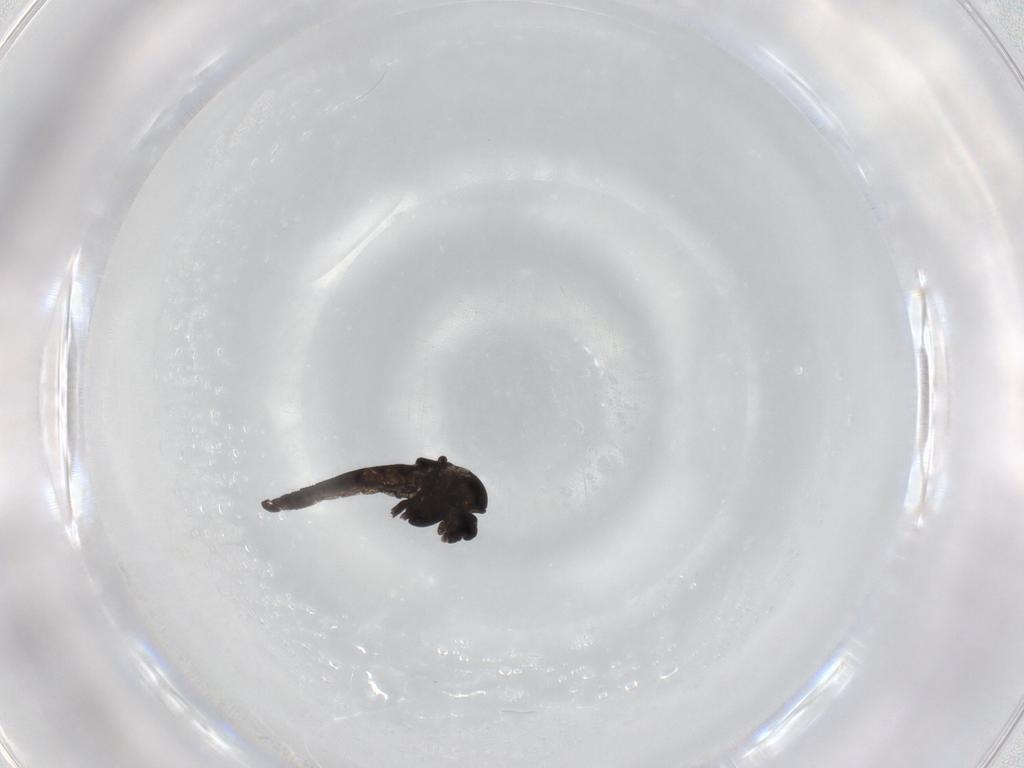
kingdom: Animalia
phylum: Arthropoda
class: Insecta
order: Diptera
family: Chironomidae
